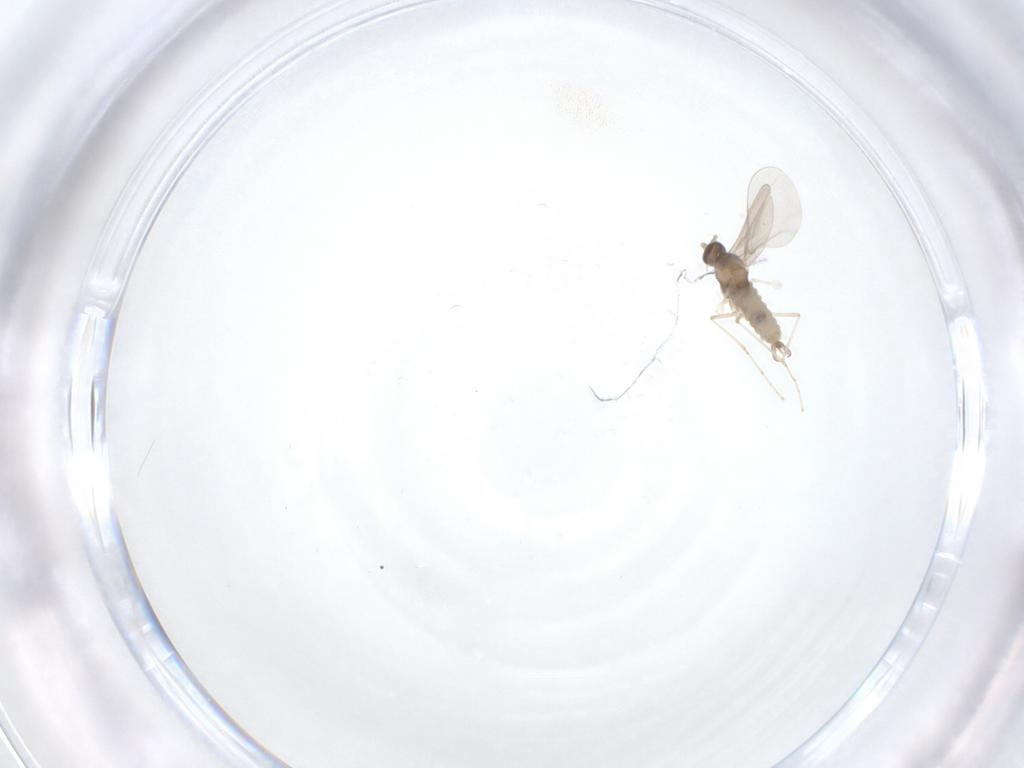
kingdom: Animalia
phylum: Arthropoda
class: Insecta
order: Diptera
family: Cecidomyiidae
